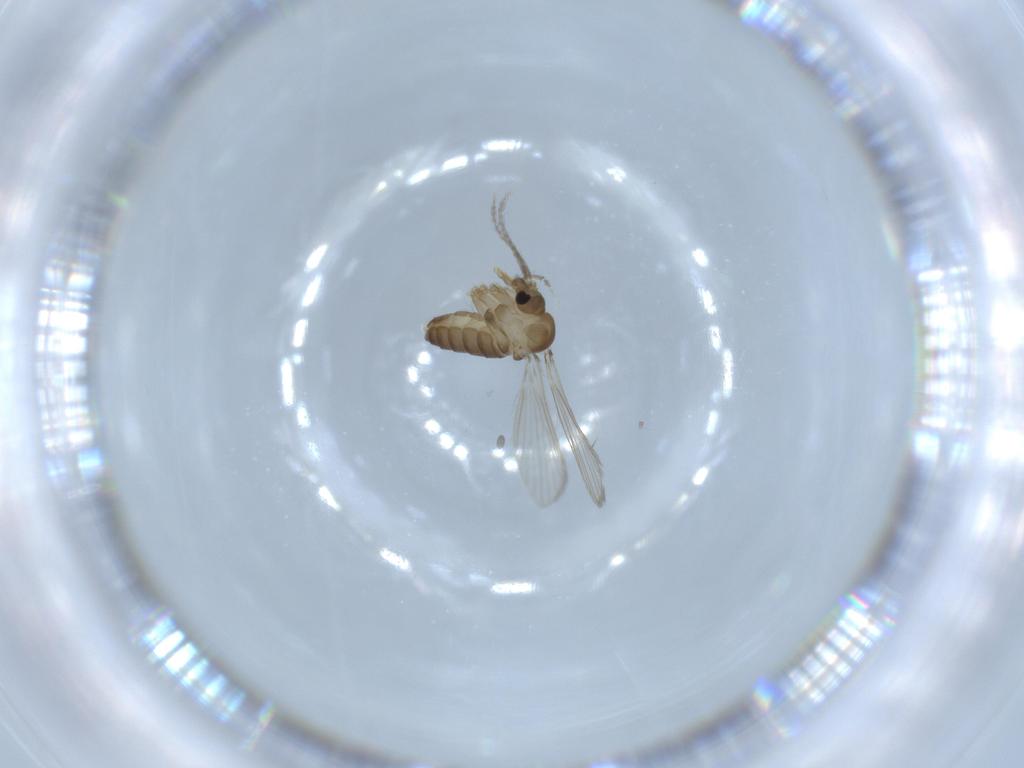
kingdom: Animalia
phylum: Arthropoda
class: Insecta
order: Diptera
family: Psychodidae
